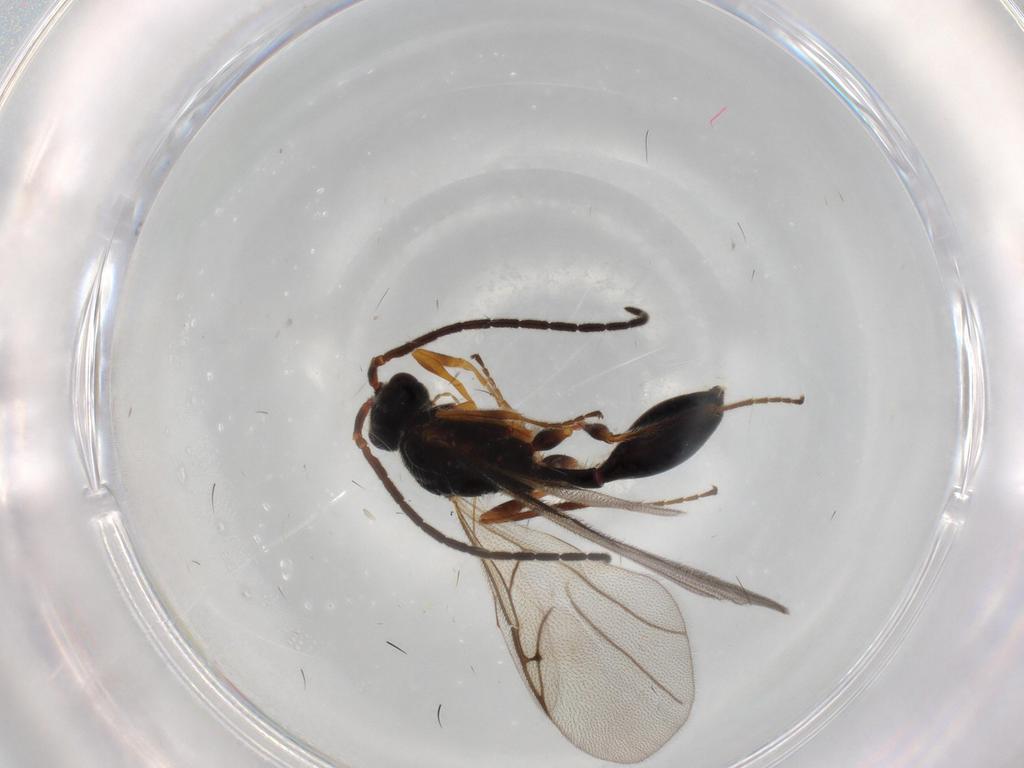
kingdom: Animalia
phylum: Arthropoda
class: Insecta
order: Hymenoptera
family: Diapriidae
